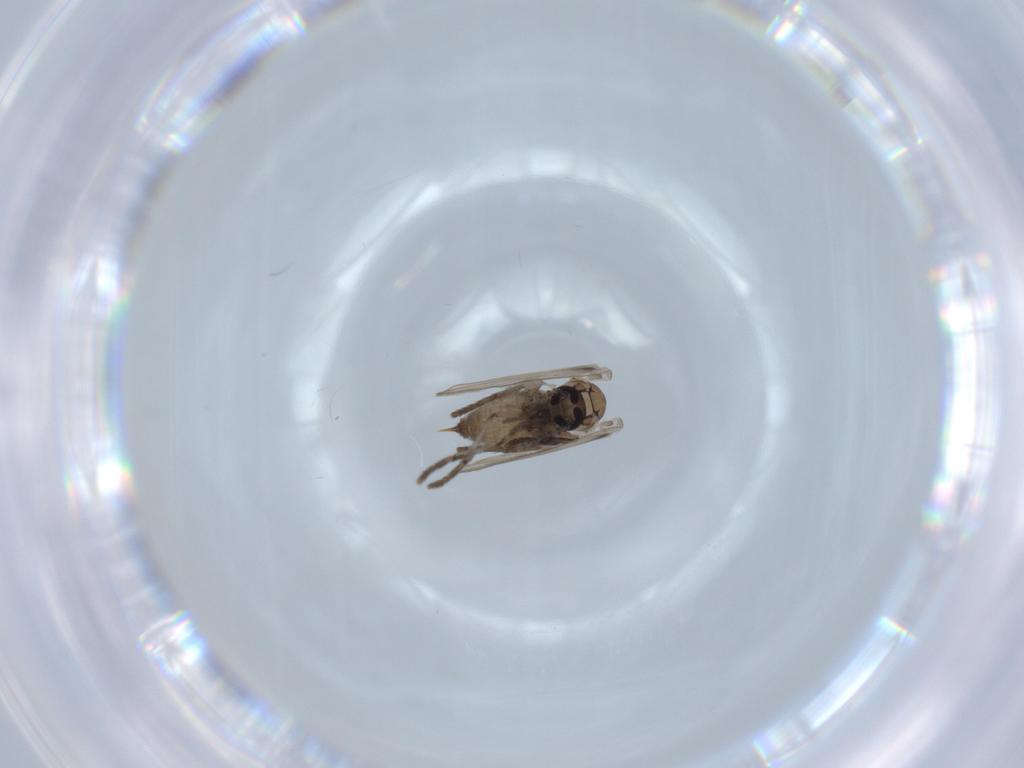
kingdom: Animalia
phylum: Arthropoda
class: Insecta
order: Diptera
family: Psychodidae
